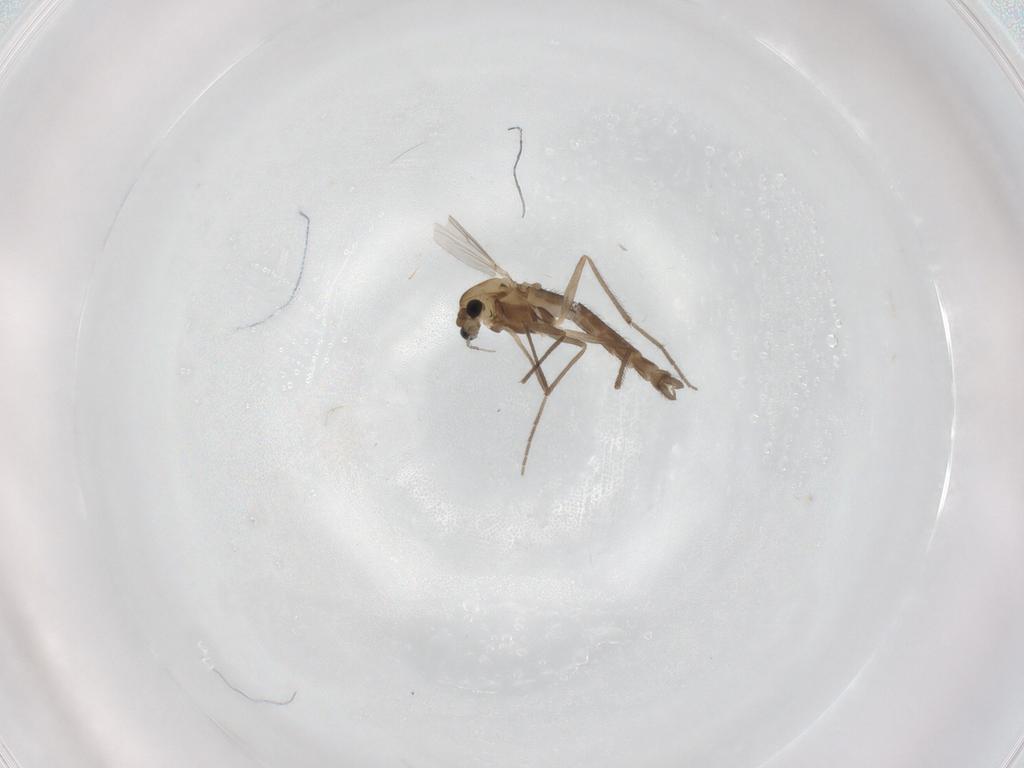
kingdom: Animalia
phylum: Arthropoda
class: Insecta
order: Diptera
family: Chironomidae
